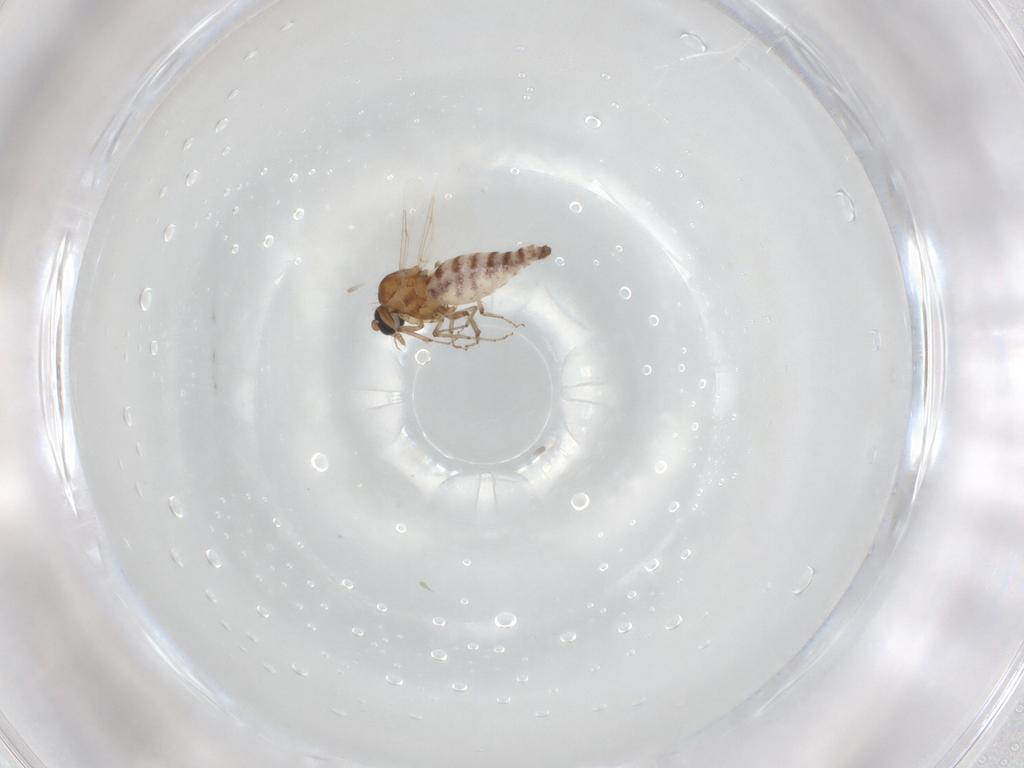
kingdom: Animalia
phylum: Arthropoda
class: Insecta
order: Diptera
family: Ceratopogonidae
